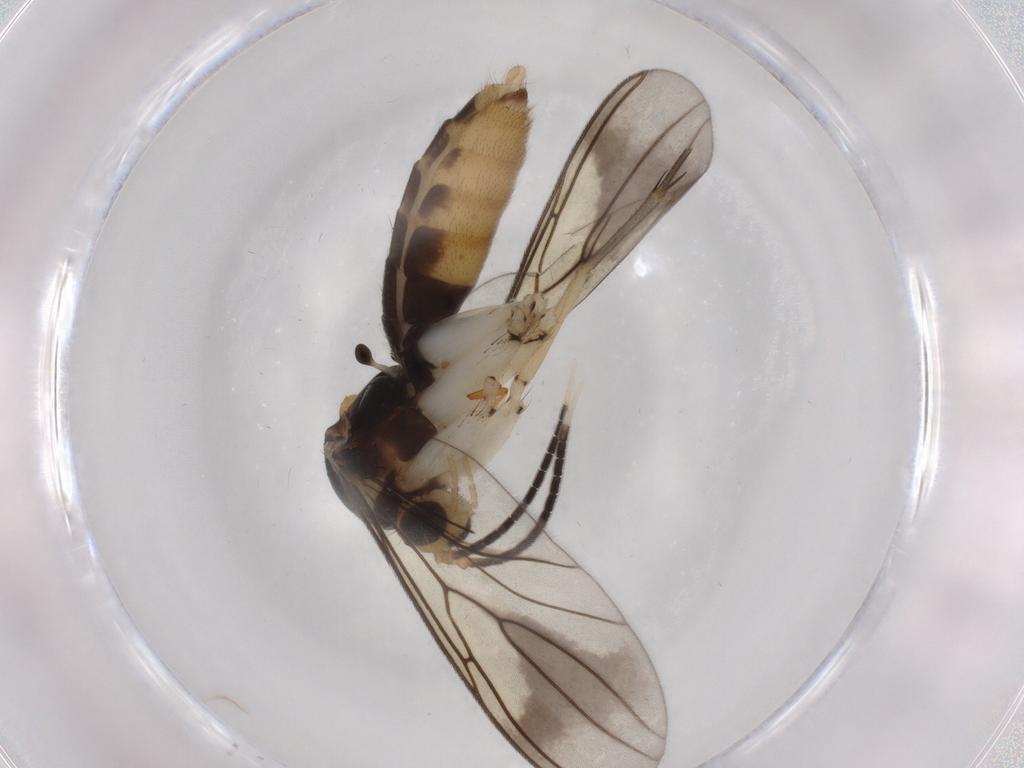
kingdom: Animalia
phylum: Arthropoda
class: Insecta
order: Diptera
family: Mycetophilidae
